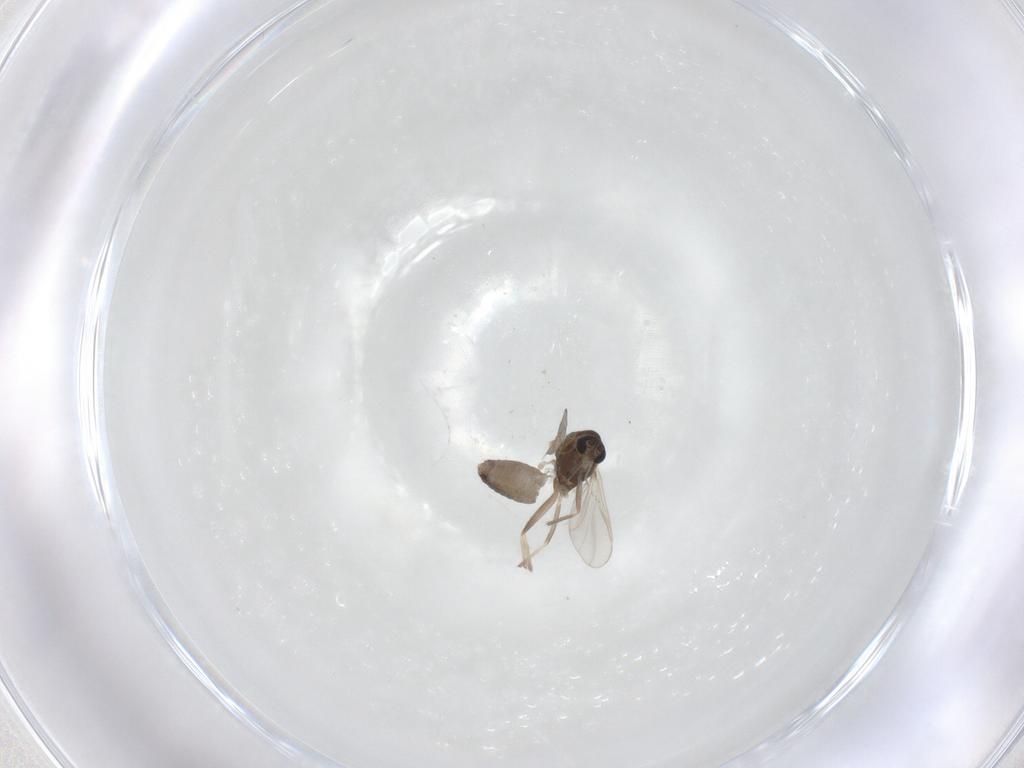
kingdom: Animalia
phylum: Arthropoda
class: Insecta
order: Diptera
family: Chironomidae
